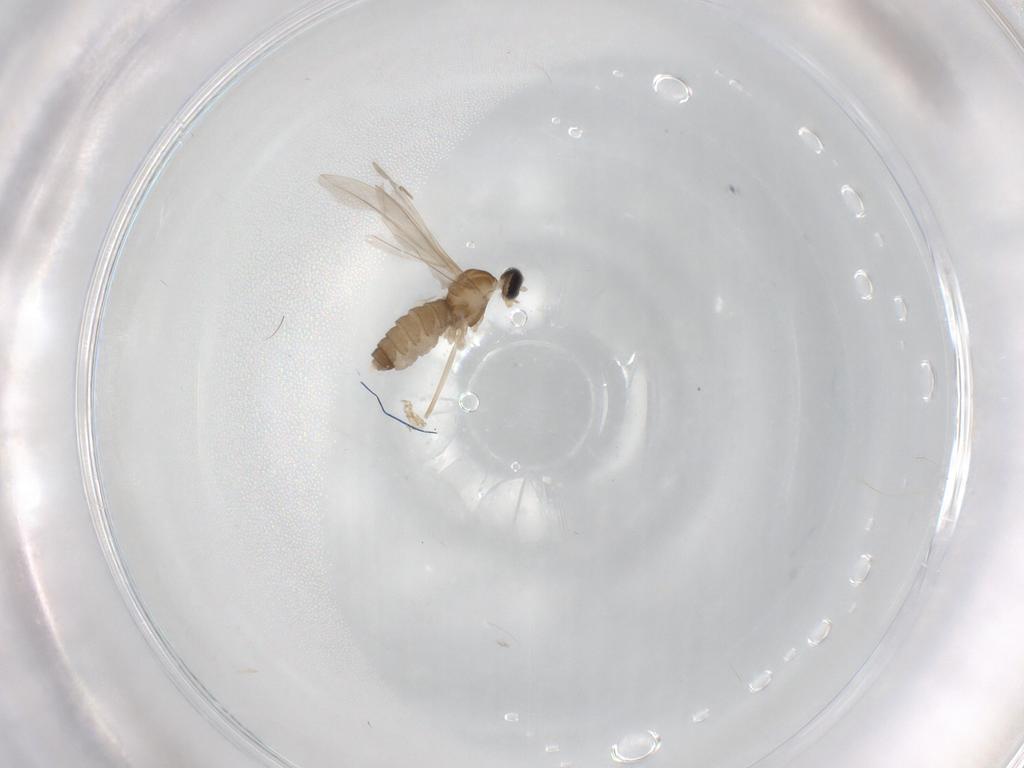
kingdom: Animalia
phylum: Arthropoda
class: Insecta
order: Diptera
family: Cecidomyiidae
